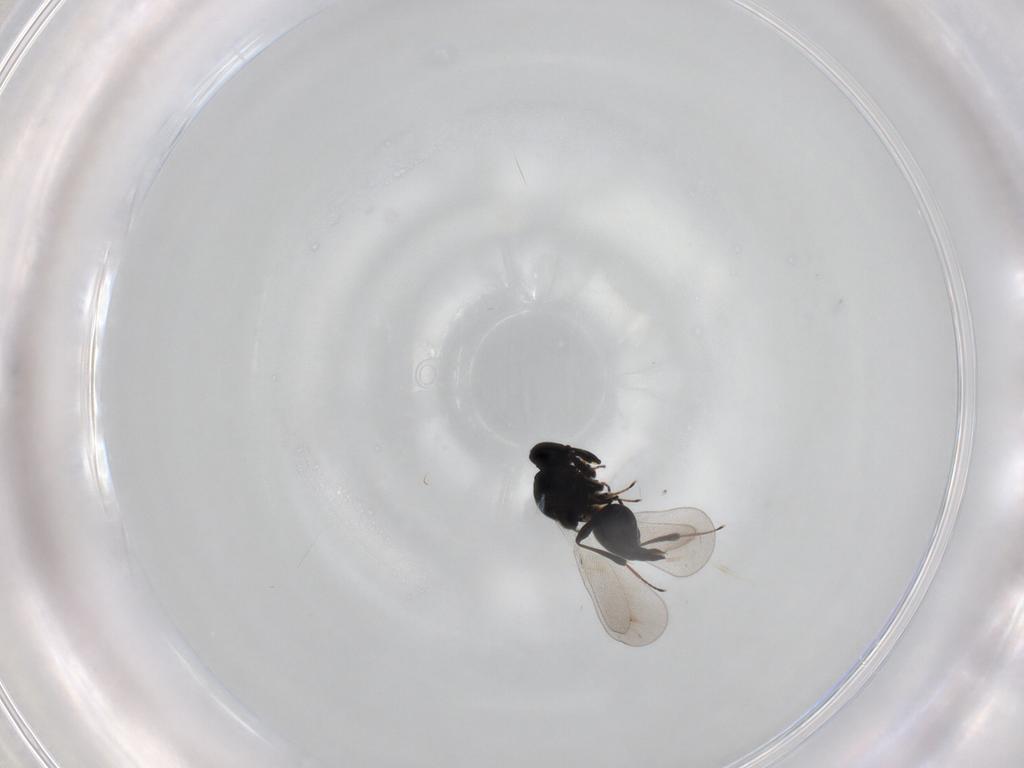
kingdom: Animalia
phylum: Arthropoda
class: Insecta
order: Hymenoptera
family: Platygastridae
